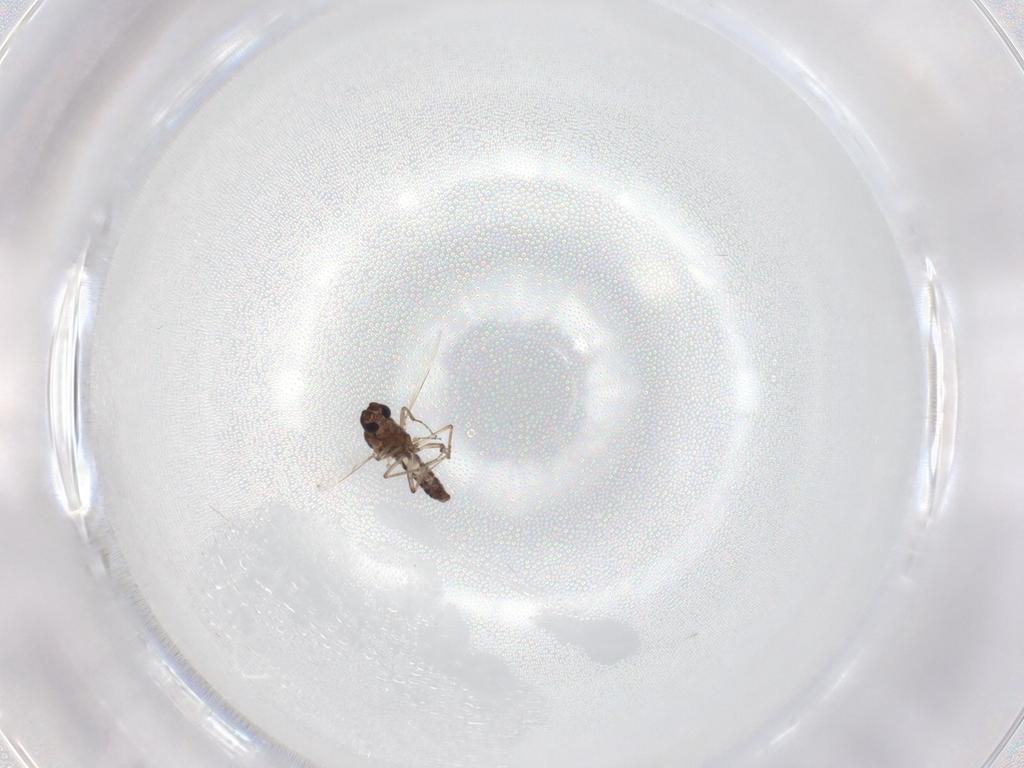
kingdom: Animalia
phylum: Arthropoda
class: Insecta
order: Diptera
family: Ceratopogonidae
